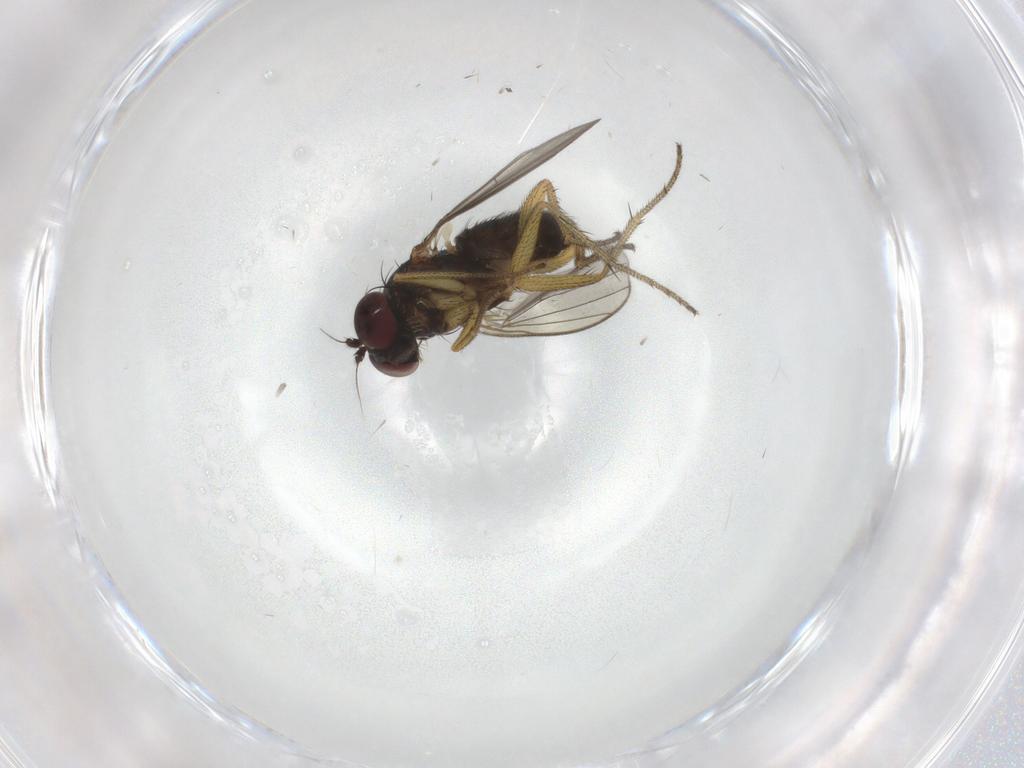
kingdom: Animalia
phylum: Arthropoda
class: Insecta
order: Diptera
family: Dolichopodidae
